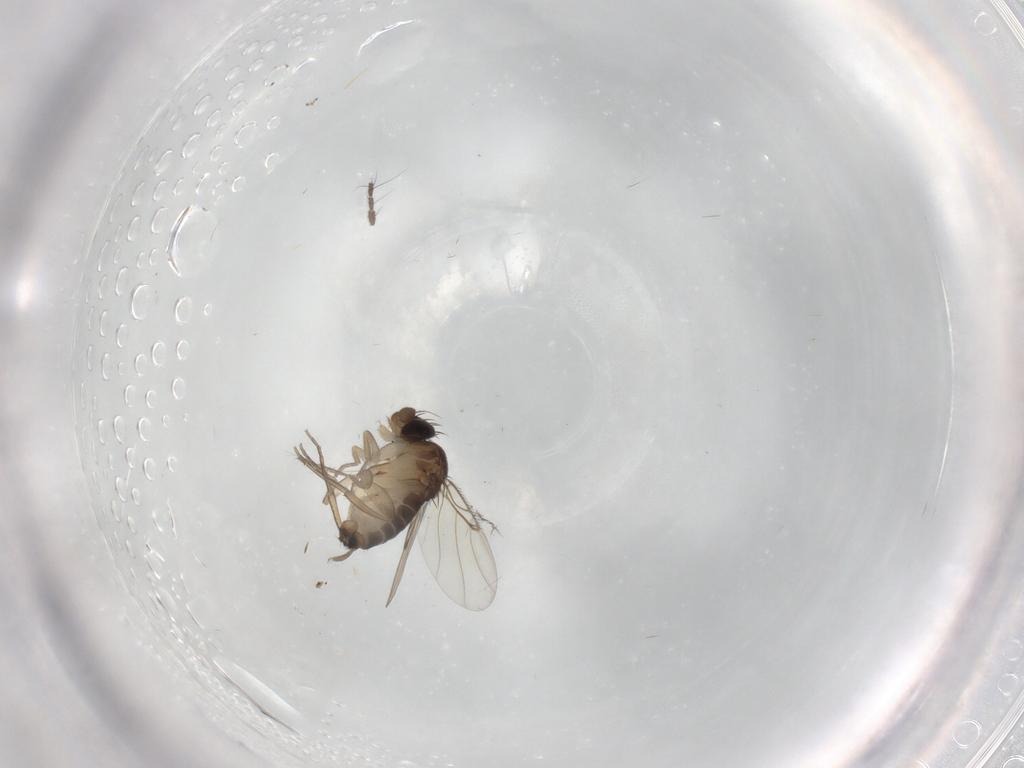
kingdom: Animalia
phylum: Arthropoda
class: Insecta
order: Diptera
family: Limoniidae
